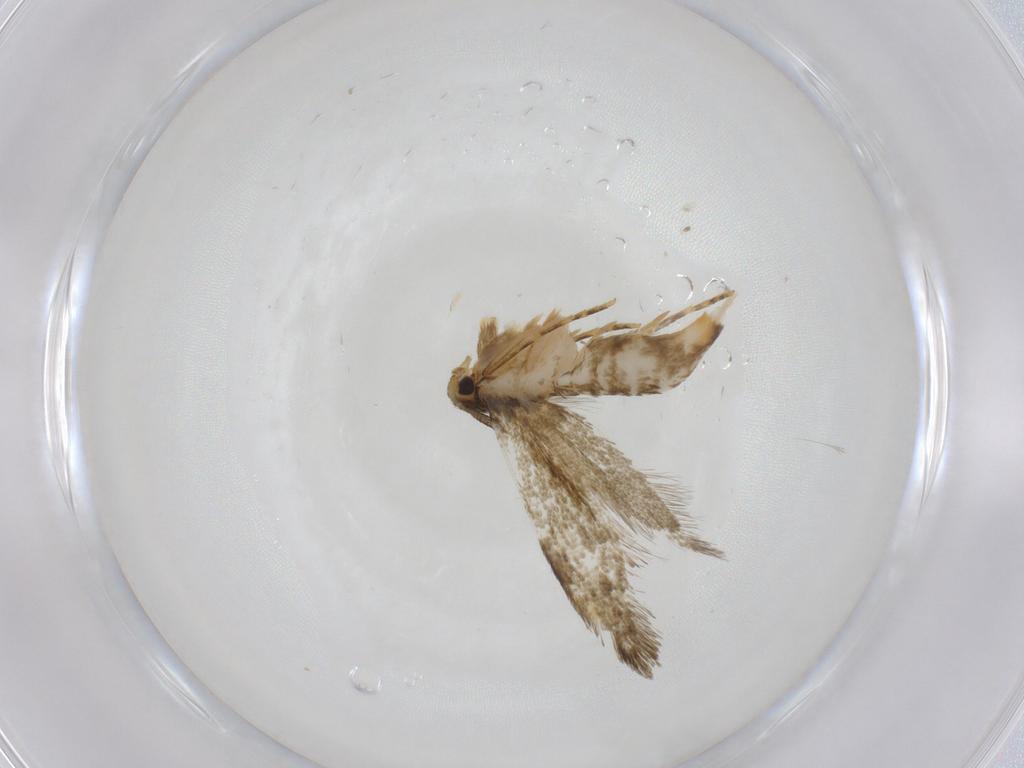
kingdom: Animalia
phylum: Arthropoda
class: Insecta
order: Lepidoptera
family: Tineidae
